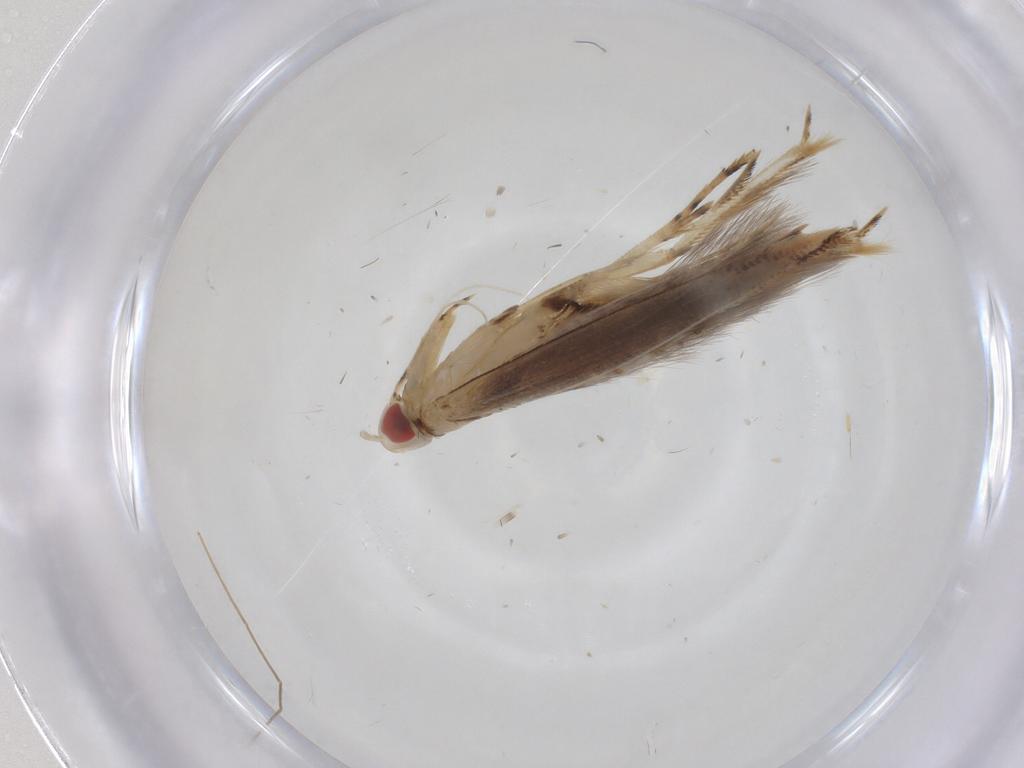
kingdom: Animalia
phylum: Arthropoda
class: Insecta
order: Lepidoptera
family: Cosmopterigidae
